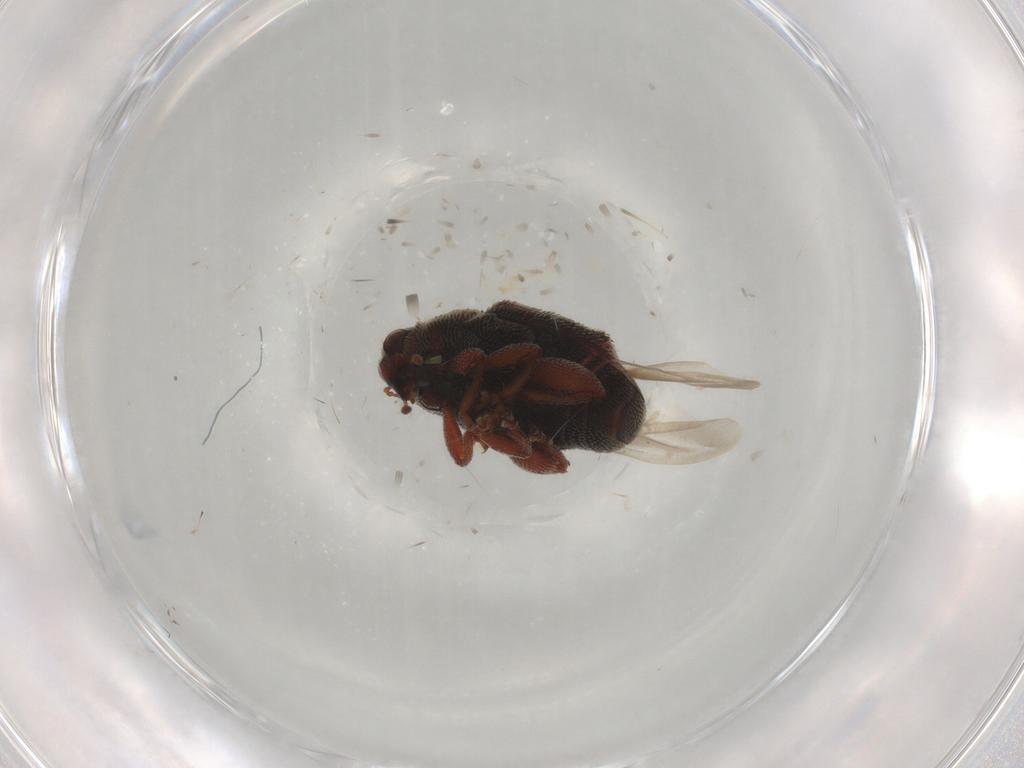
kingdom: Animalia
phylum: Arthropoda
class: Insecta
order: Coleoptera
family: Curculionidae
